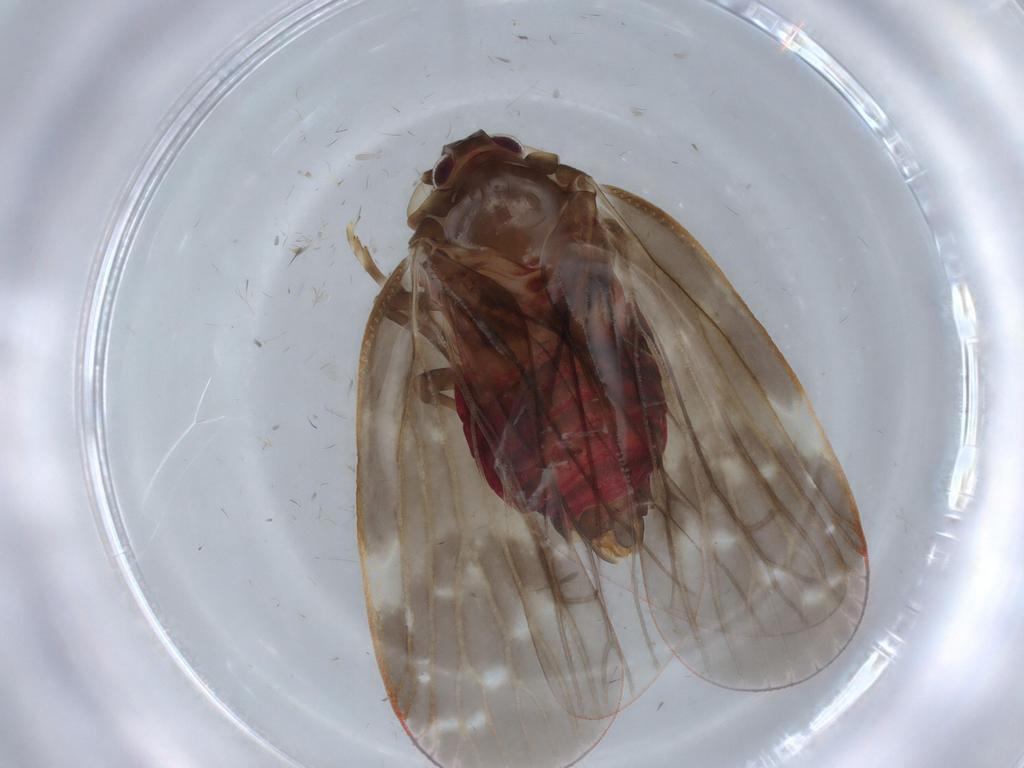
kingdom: Animalia
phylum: Arthropoda
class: Insecta
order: Hemiptera
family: Achilidae
